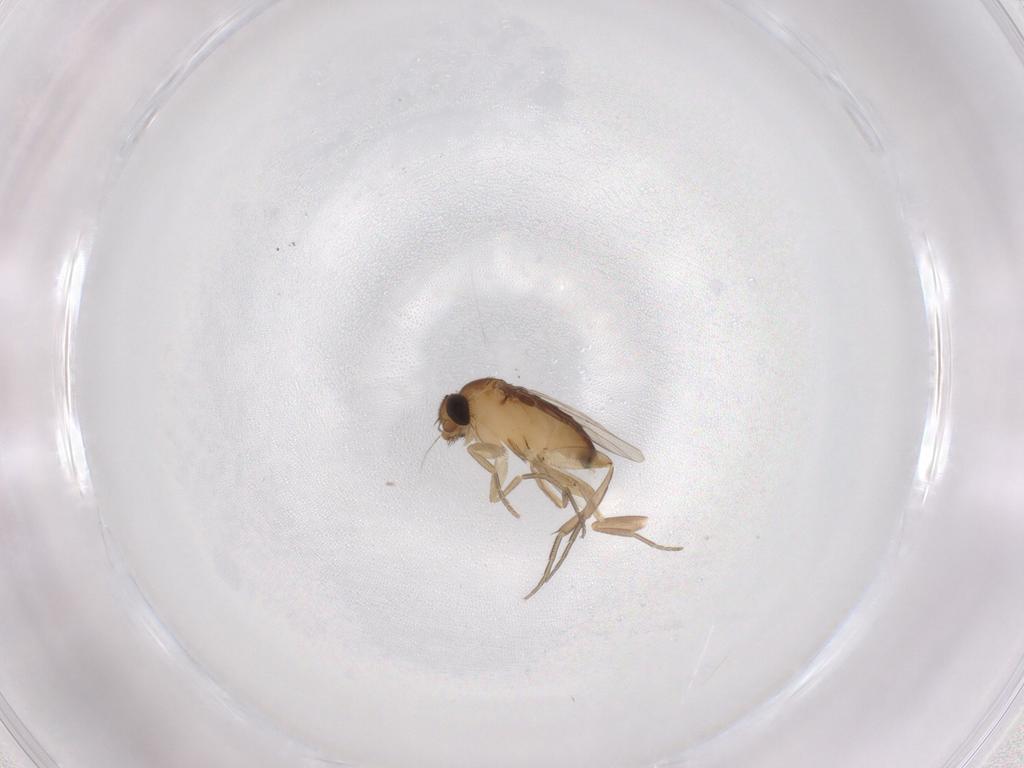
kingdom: Animalia
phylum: Arthropoda
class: Insecta
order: Diptera
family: Phoridae
